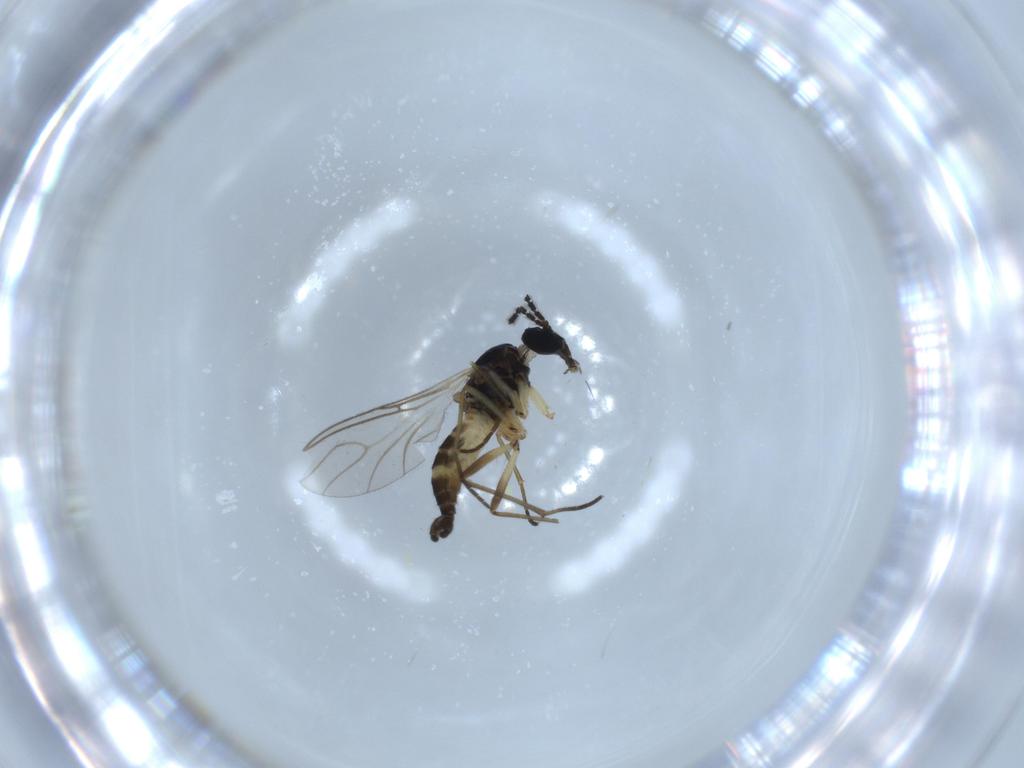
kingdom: Animalia
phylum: Arthropoda
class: Insecta
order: Diptera
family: Sciaridae
